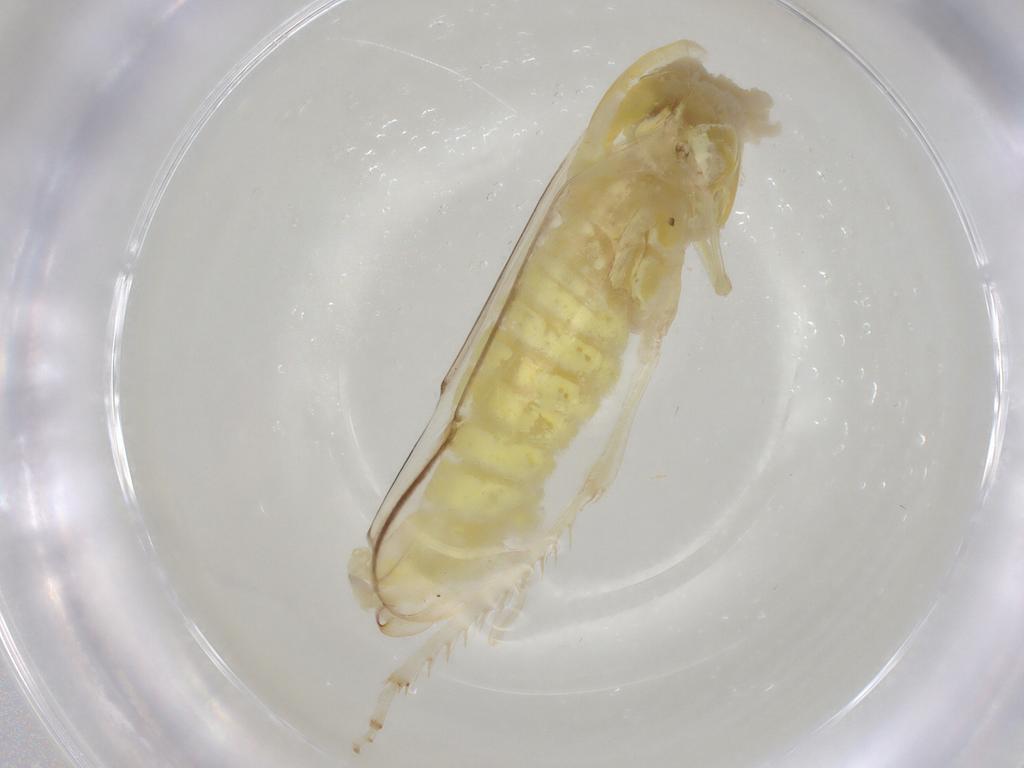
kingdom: Animalia
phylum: Arthropoda
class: Insecta
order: Hemiptera
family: Cicadellidae
